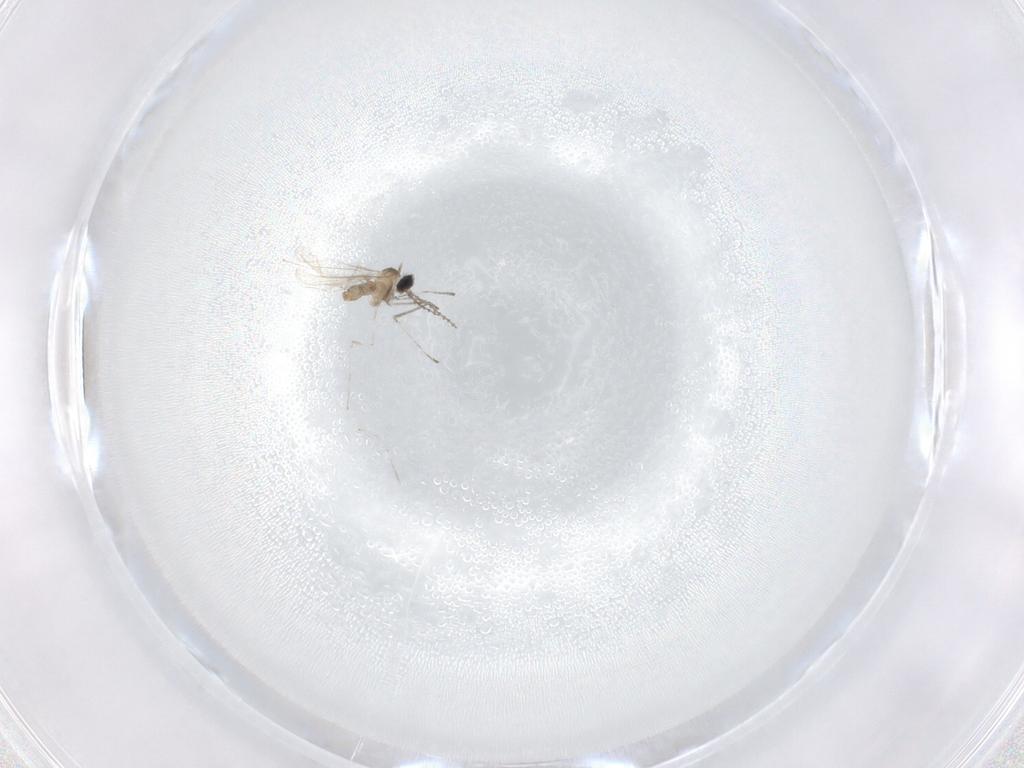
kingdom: Animalia
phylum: Arthropoda
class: Insecta
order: Diptera
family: Cecidomyiidae
